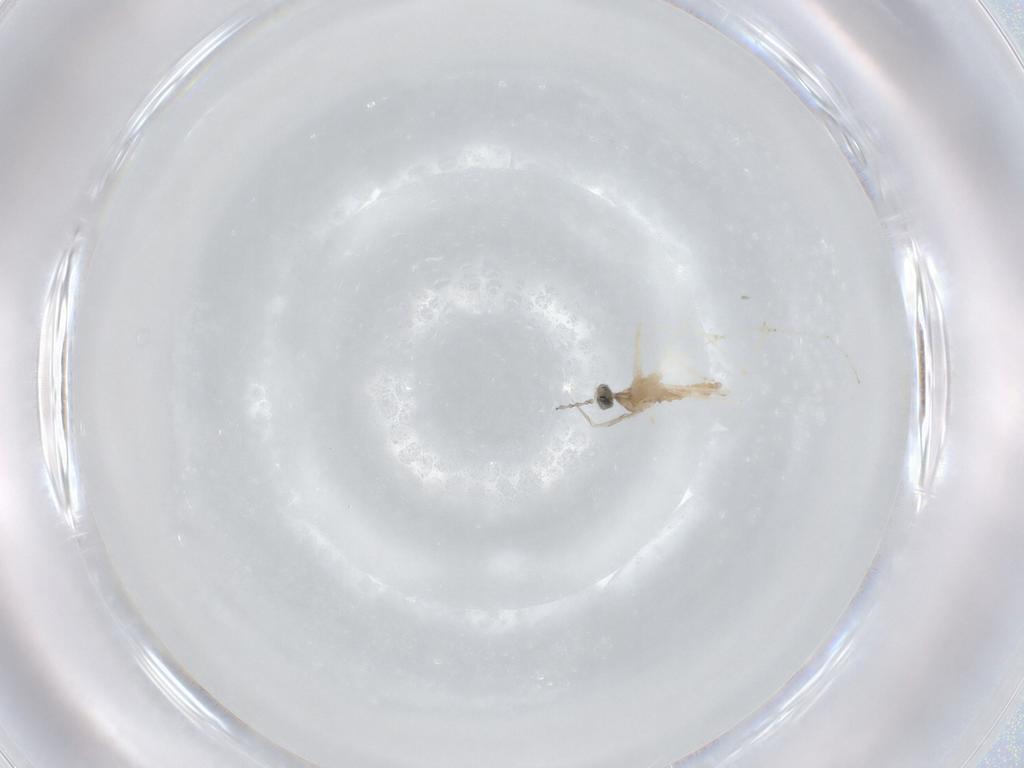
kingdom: Animalia
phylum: Arthropoda
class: Insecta
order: Diptera
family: Cecidomyiidae
